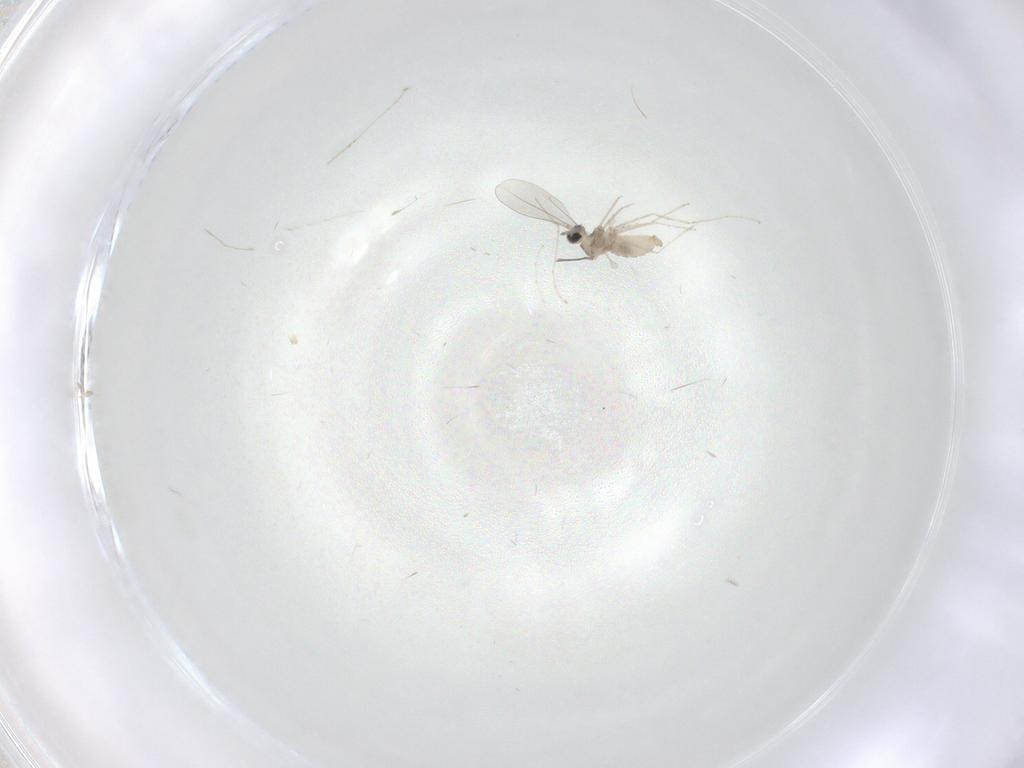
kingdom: Animalia
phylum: Arthropoda
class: Insecta
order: Diptera
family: Cecidomyiidae
